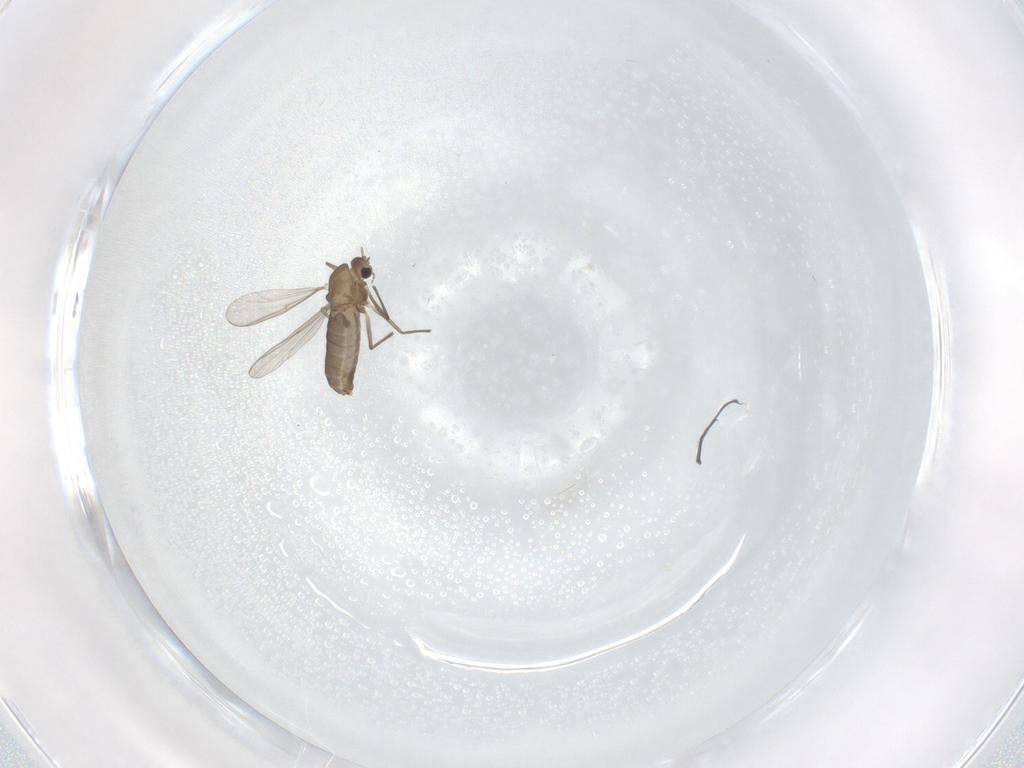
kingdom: Animalia
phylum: Arthropoda
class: Insecta
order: Diptera
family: Chironomidae
